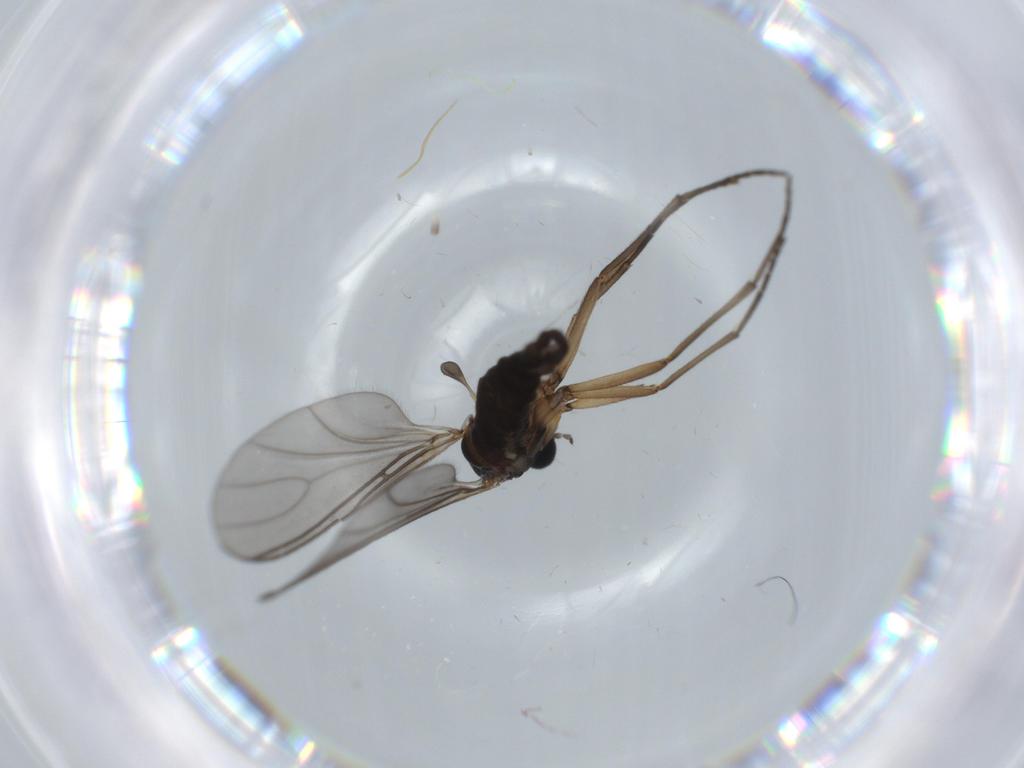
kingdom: Animalia
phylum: Arthropoda
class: Insecta
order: Diptera
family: Sciaridae
